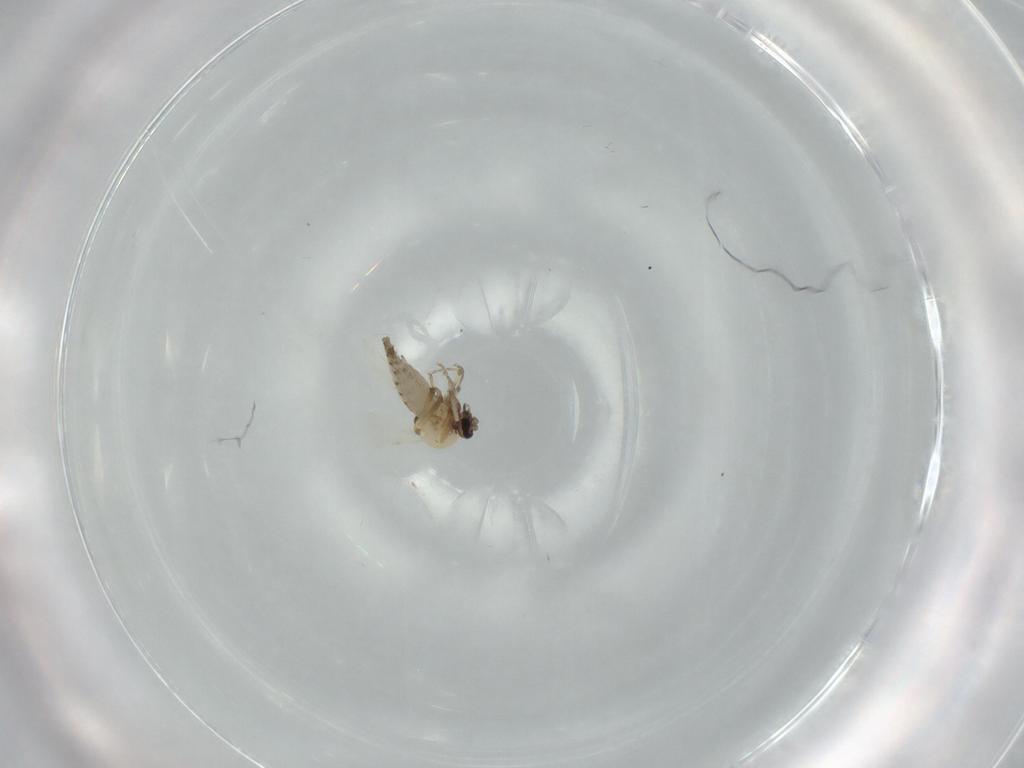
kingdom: Animalia
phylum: Arthropoda
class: Insecta
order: Diptera
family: Ceratopogonidae
